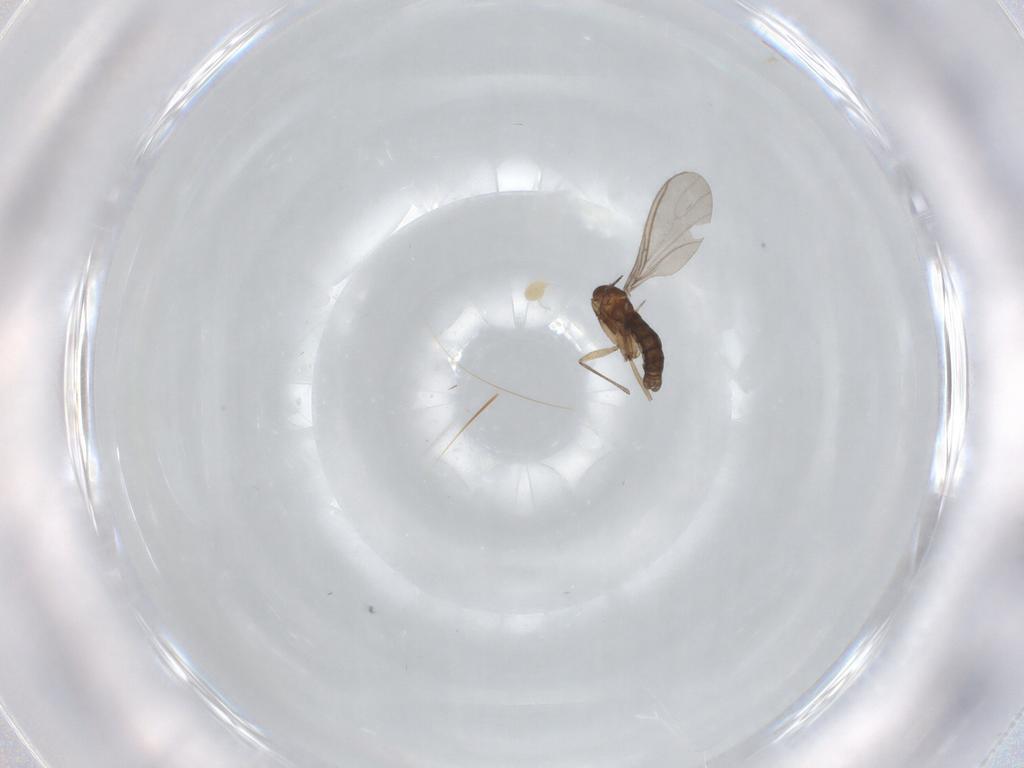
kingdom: Animalia
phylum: Arthropoda
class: Insecta
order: Diptera
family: Sciaridae
